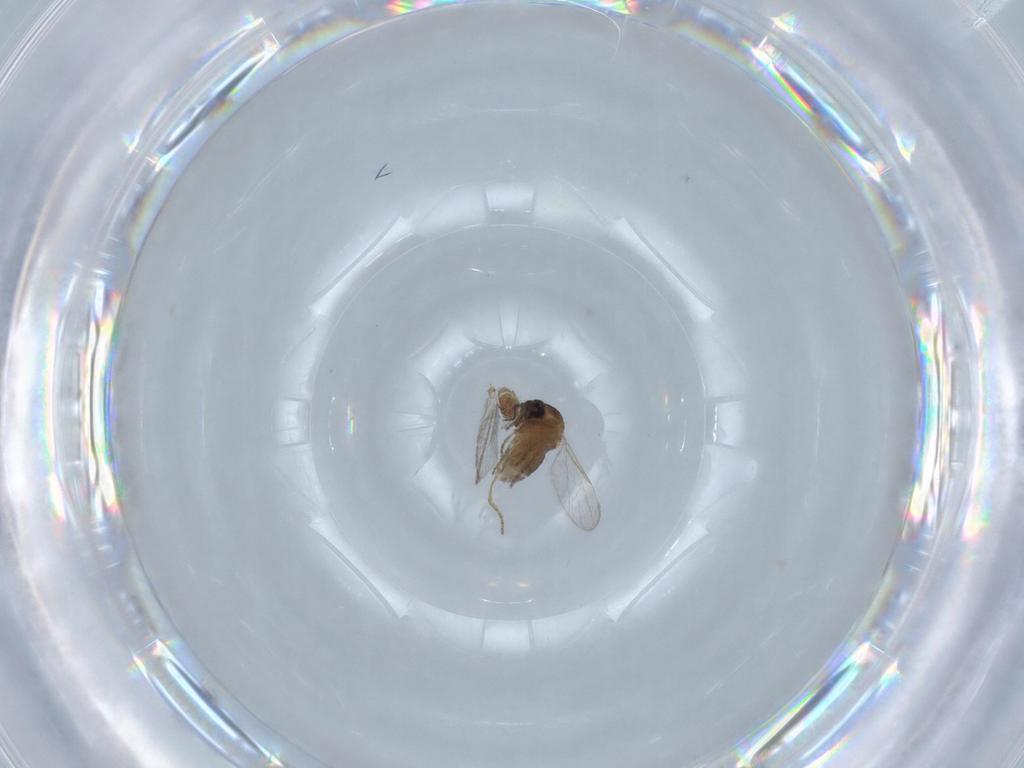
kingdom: Animalia
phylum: Arthropoda
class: Insecta
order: Diptera
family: Ceratopogonidae
